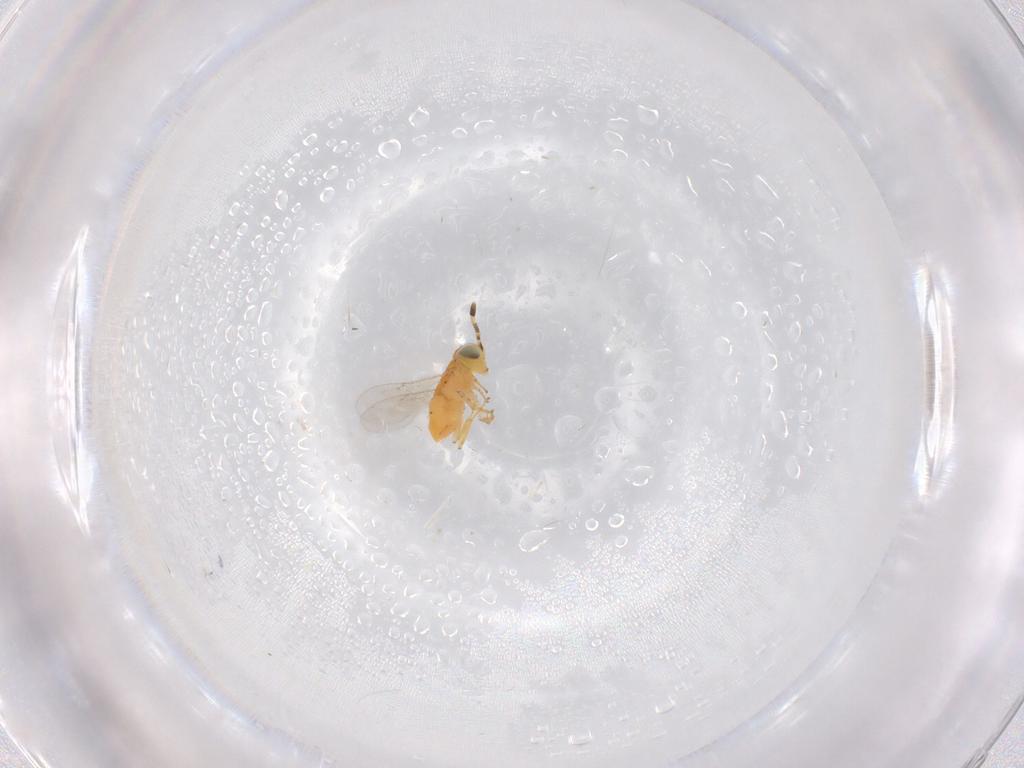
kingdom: Animalia
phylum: Arthropoda
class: Insecta
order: Hymenoptera
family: Encyrtidae
